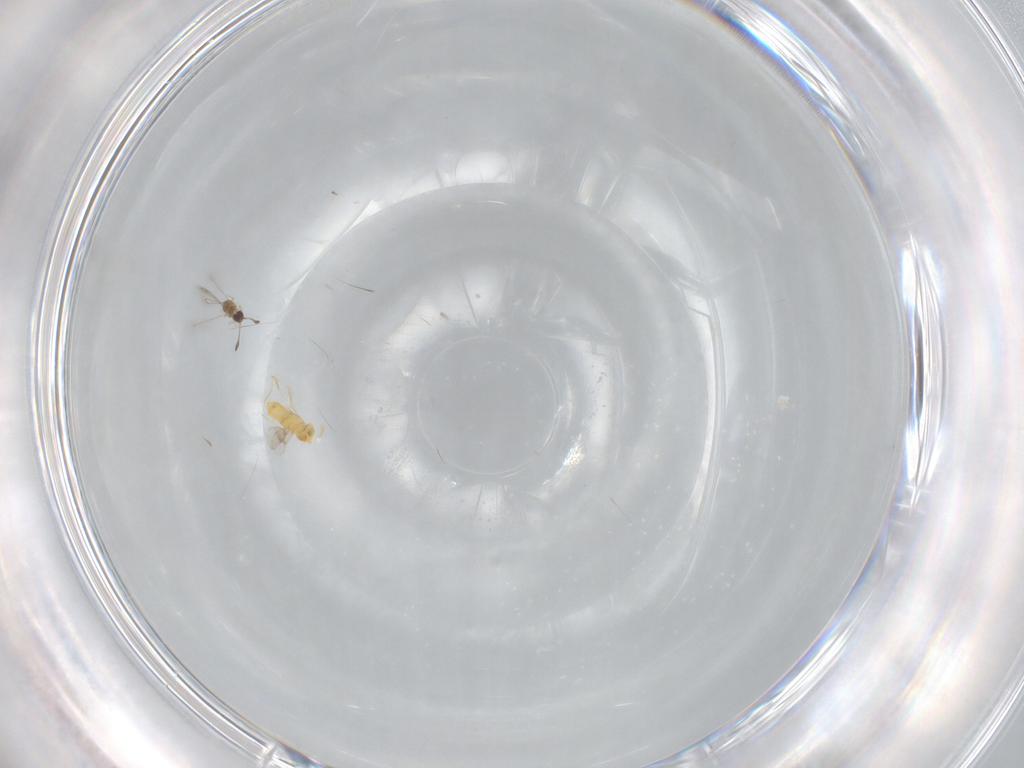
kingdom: Animalia
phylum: Arthropoda
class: Insecta
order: Hymenoptera
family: Aphelinidae
